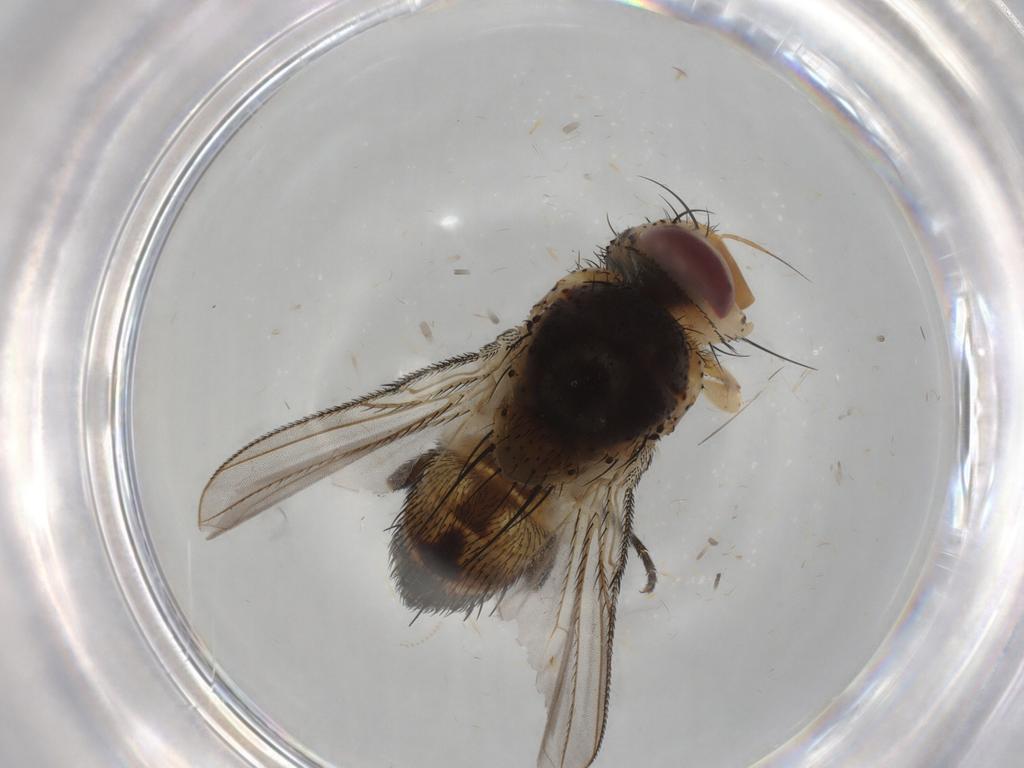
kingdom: Animalia
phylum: Arthropoda
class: Insecta
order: Diptera
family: Tachinidae
